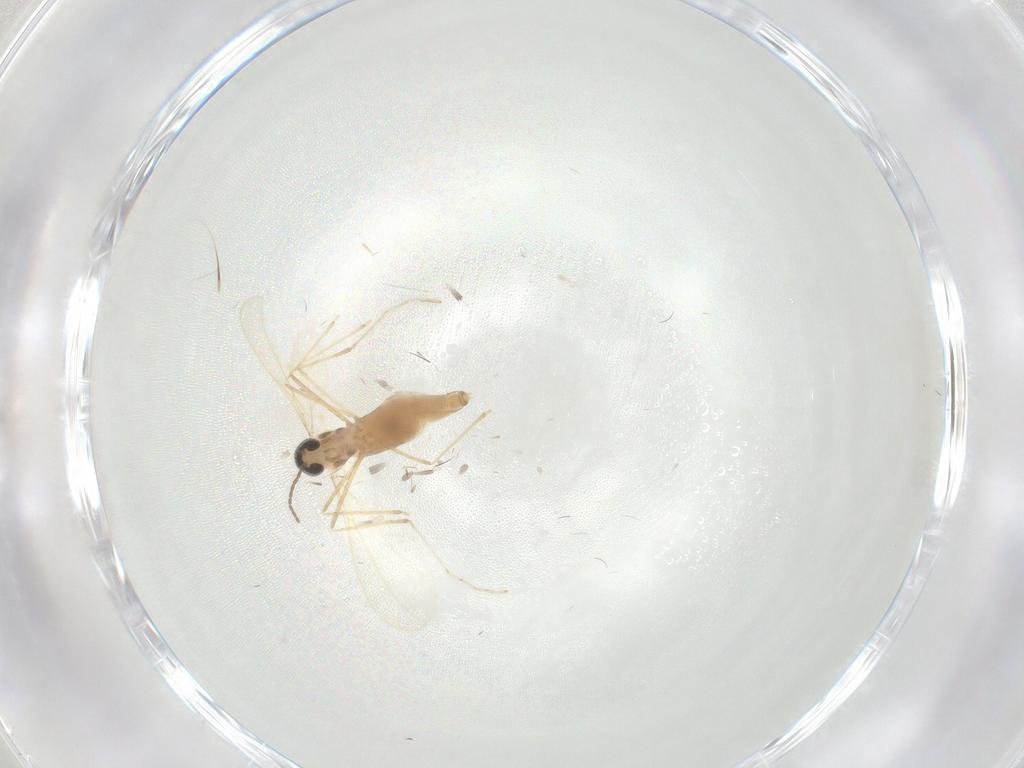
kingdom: Animalia
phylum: Arthropoda
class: Insecta
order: Diptera
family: Cecidomyiidae
